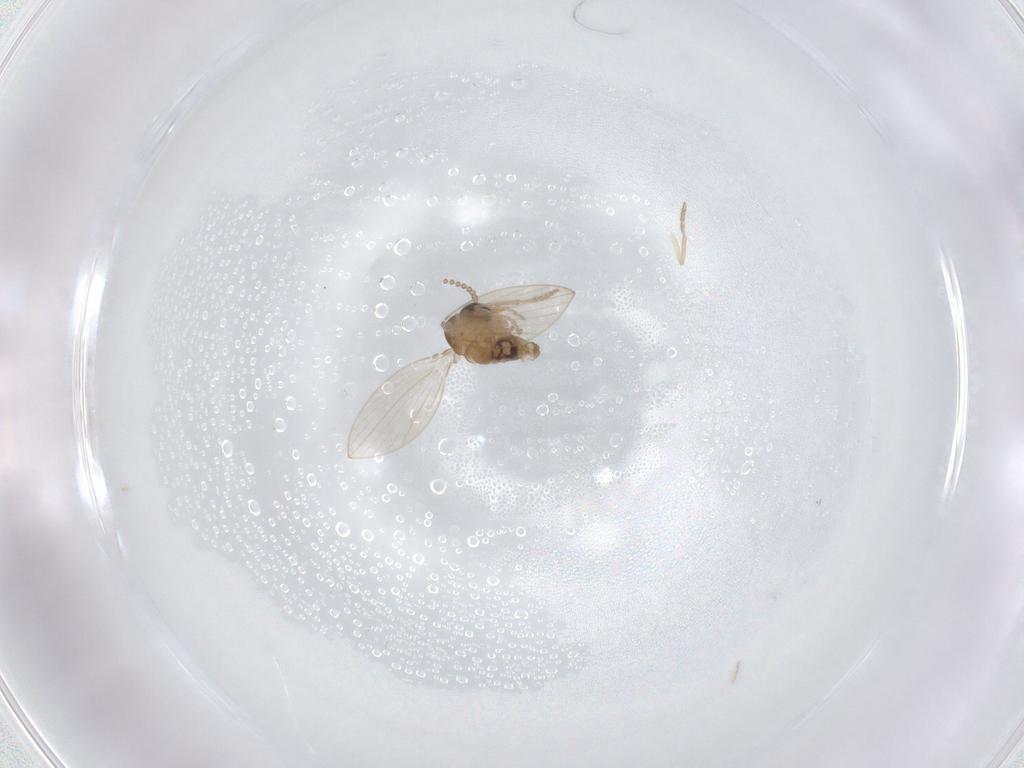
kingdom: Animalia
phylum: Arthropoda
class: Insecta
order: Diptera
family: Psychodidae
